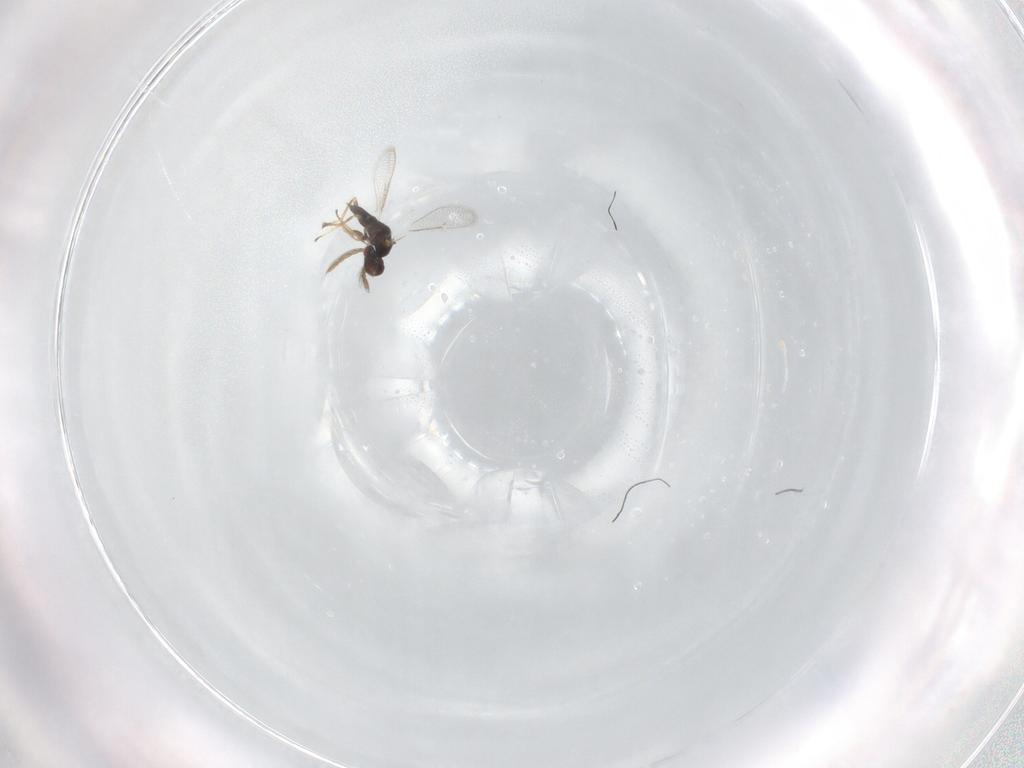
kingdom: Animalia
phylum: Arthropoda
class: Insecta
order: Hymenoptera
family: Eulophidae
